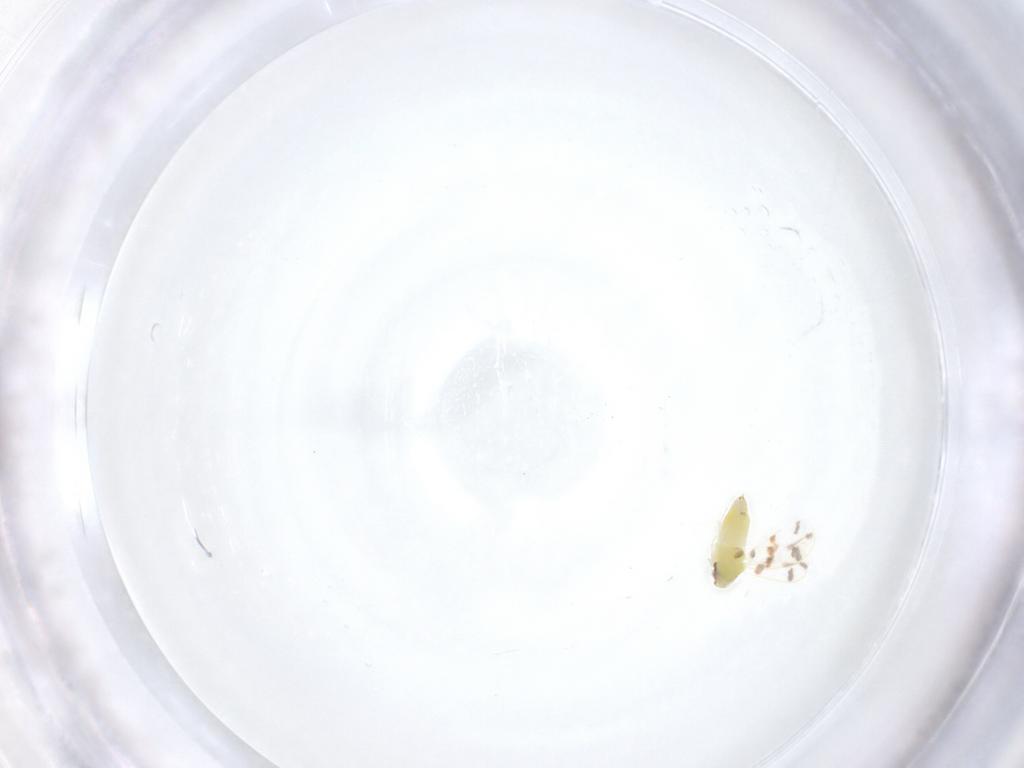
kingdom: Animalia
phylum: Arthropoda
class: Insecta
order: Hemiptera
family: Aleyrodidae
